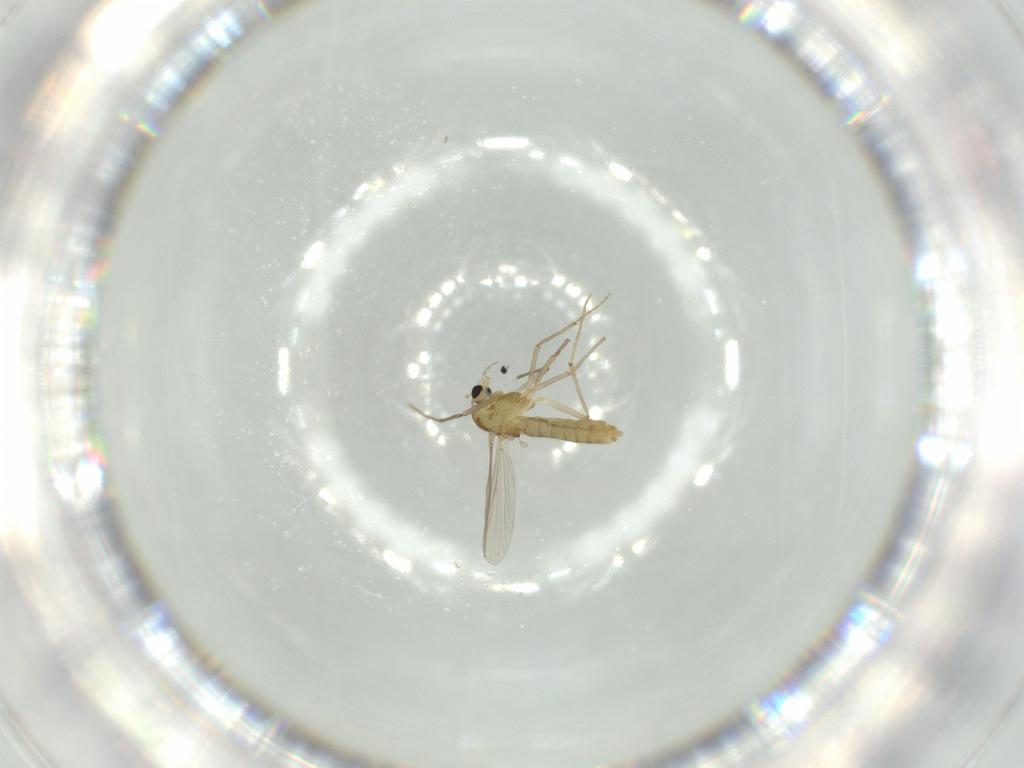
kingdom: Animalia
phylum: Arthropoda
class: Insecta
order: Diptera
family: Chironomidae
